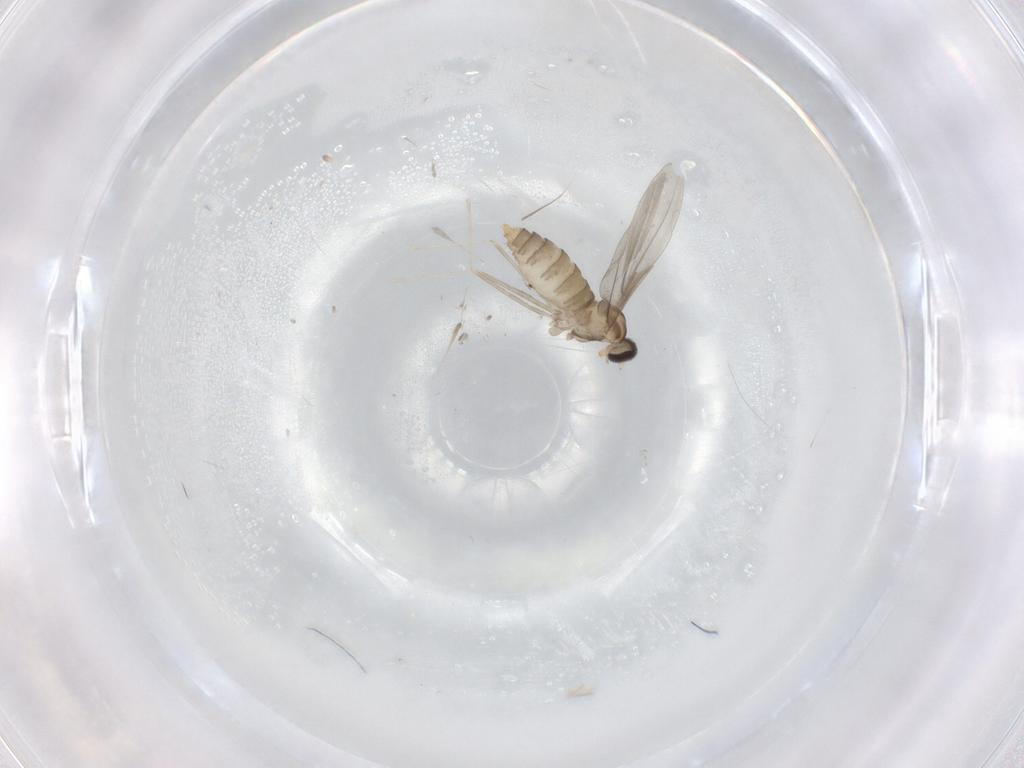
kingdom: Animalia
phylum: Arthropoda
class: Insecta
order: Diptera
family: Cecidomyiidae
